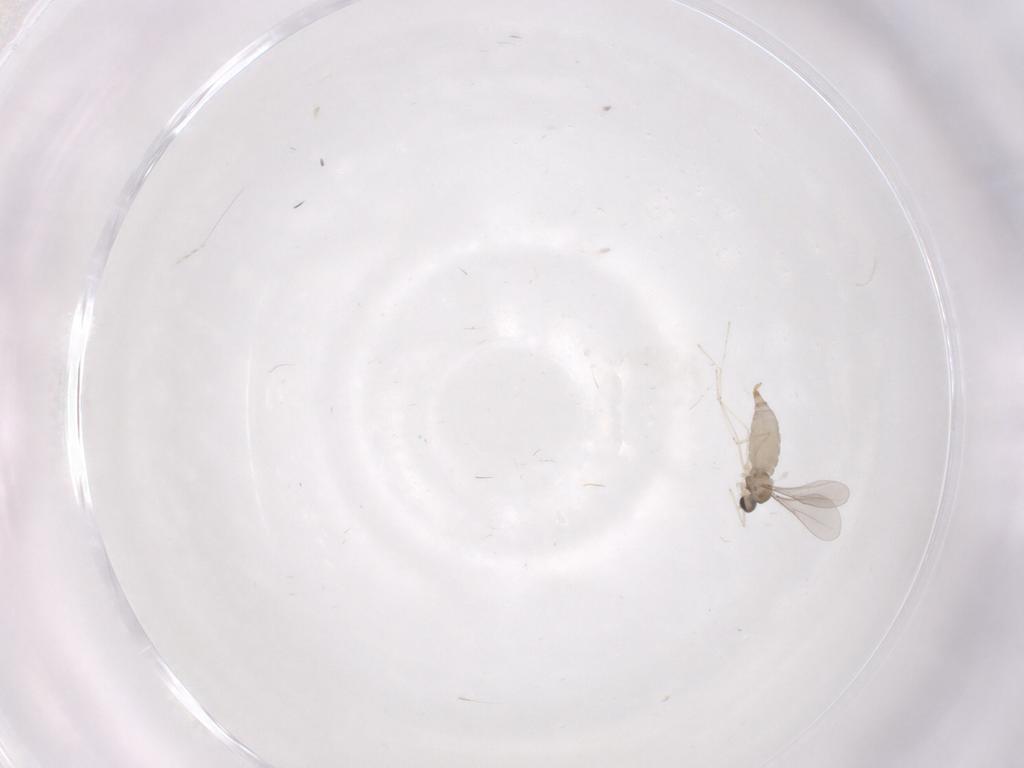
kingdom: Animalia
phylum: Arthropoda
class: Insecta
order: Diptera
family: Cecidomyiidae
